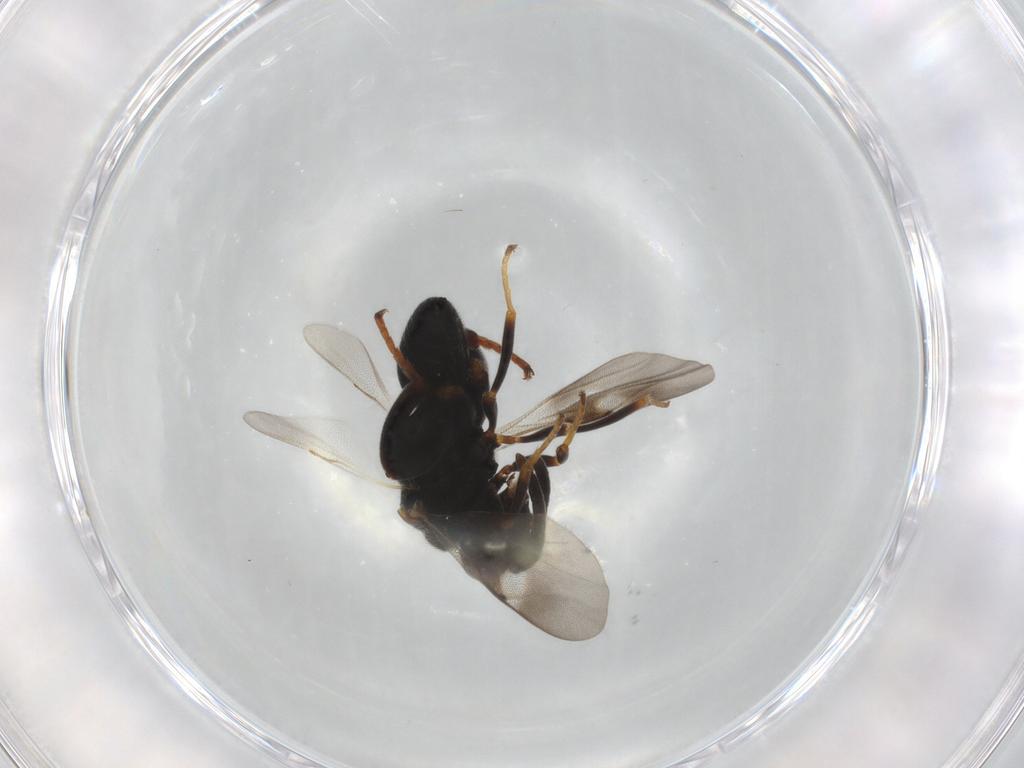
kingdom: Animalia
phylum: Arthropoda
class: Insecta
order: Hymenoptera
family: Chalcididae
